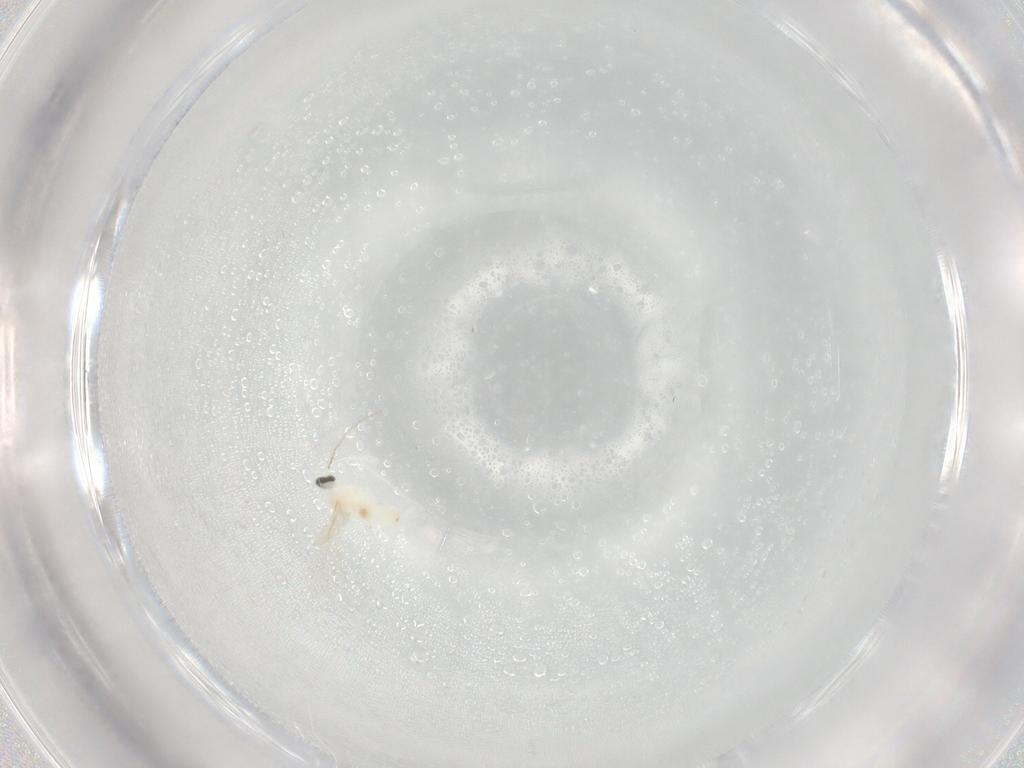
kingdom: Animalia
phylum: Arthropoda
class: Insecta
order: Diptera
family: Cecidomyiidae
